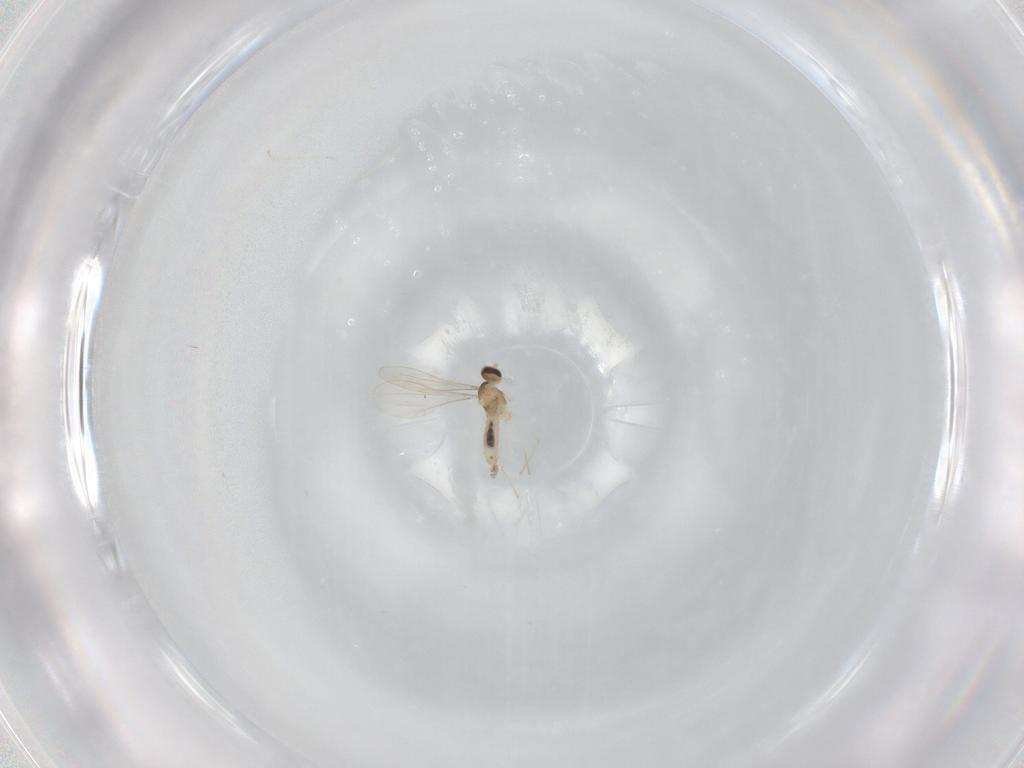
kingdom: Animalia
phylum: Arthropoda
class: Insecta
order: Diptera
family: Cecidomyiidae
